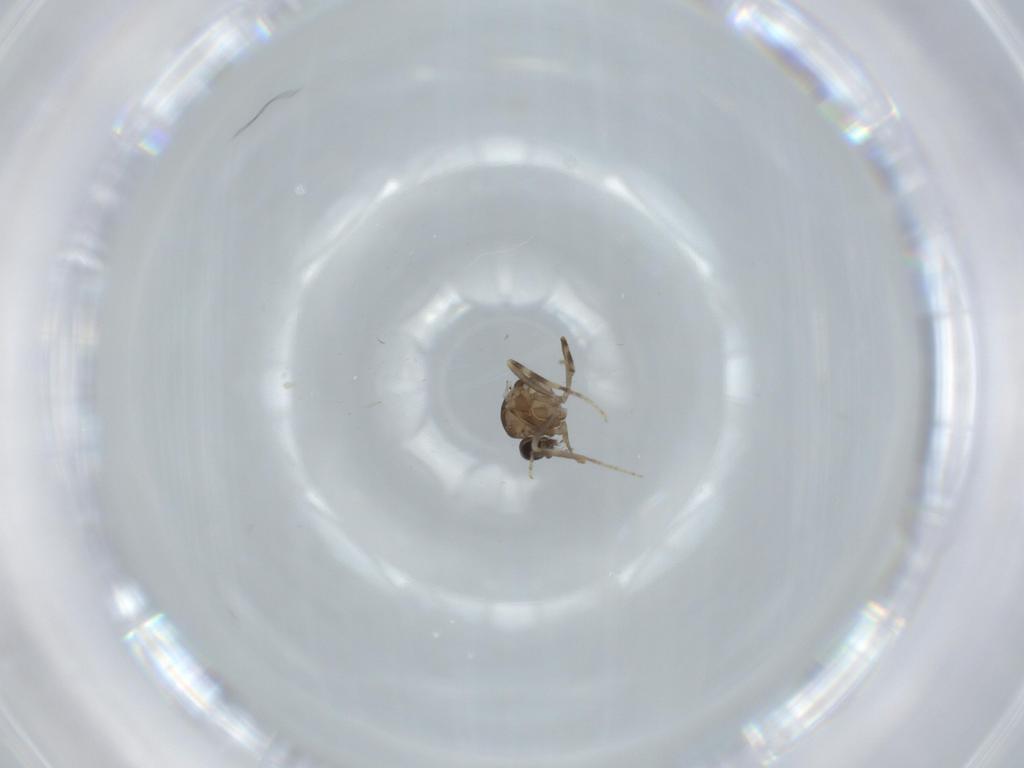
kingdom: Animalia
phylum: Arthropoda
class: Insecta
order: Diptera
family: Ceratopogonidae
